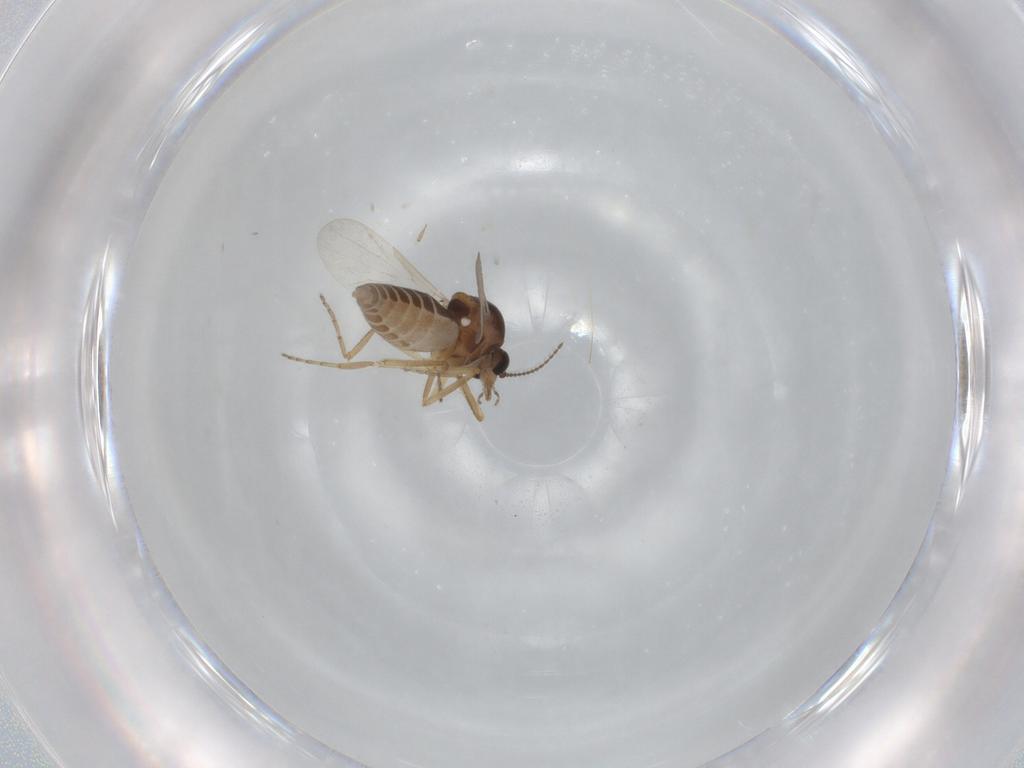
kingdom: Animalia
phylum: Arthropoda
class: Insecta
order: Diptera
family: Ceratopogonidae
